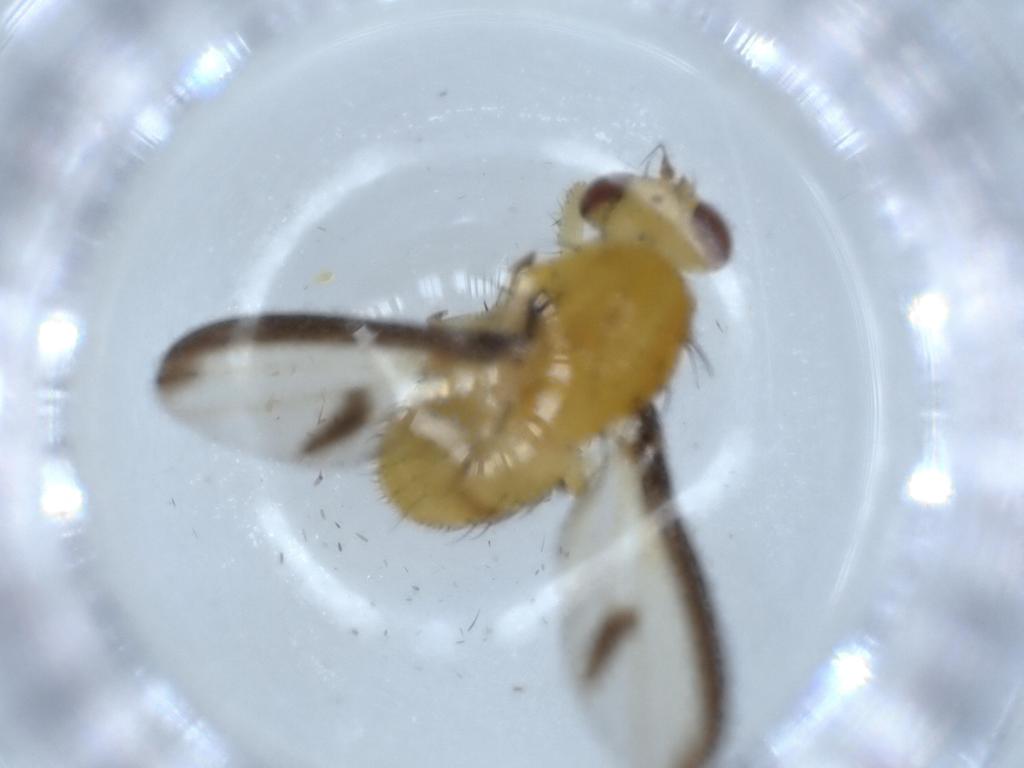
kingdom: Animalia
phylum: Arthropoda
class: Insecta
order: Diptera
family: Lauxaniidae
